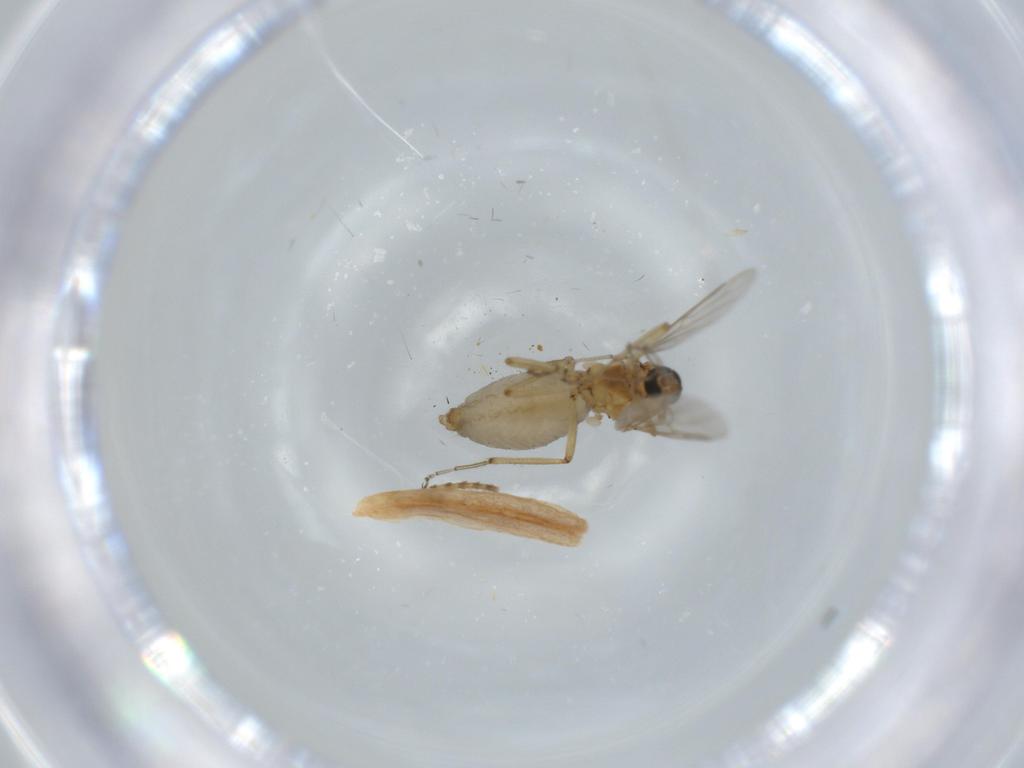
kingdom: Animalia
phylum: Arthropoda
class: Insecta
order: Diptera
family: Ceratopogonidae
